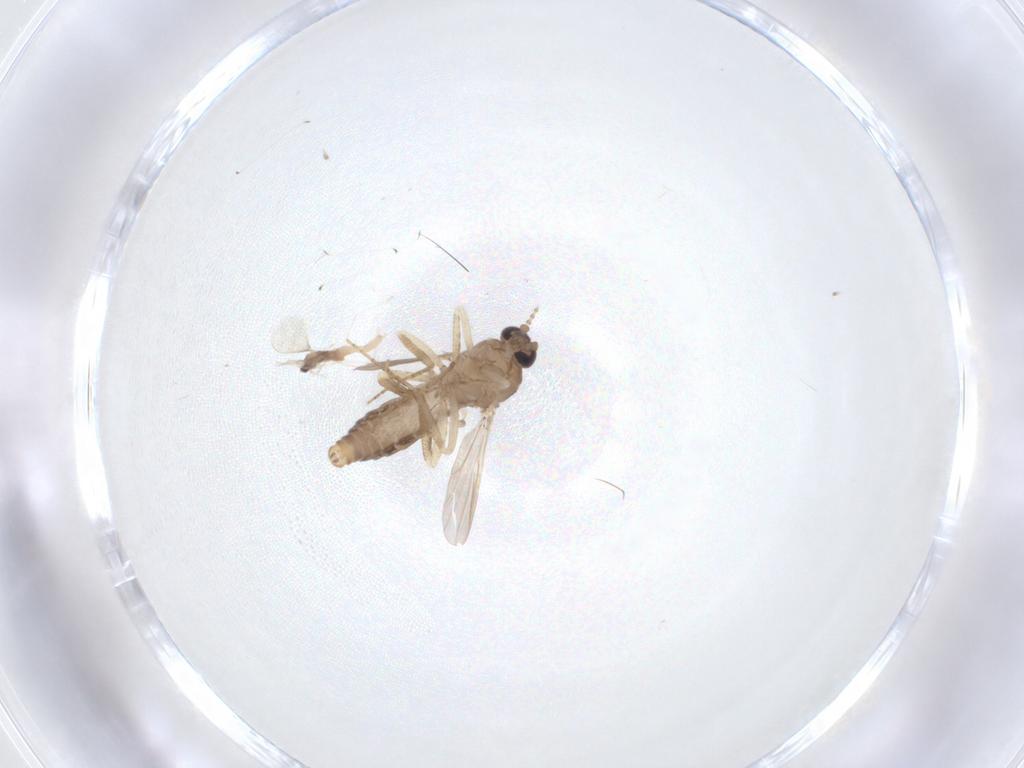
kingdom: Animalia
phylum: Arthropoda
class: Insecta
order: Diptera
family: Ceratopogonidae
